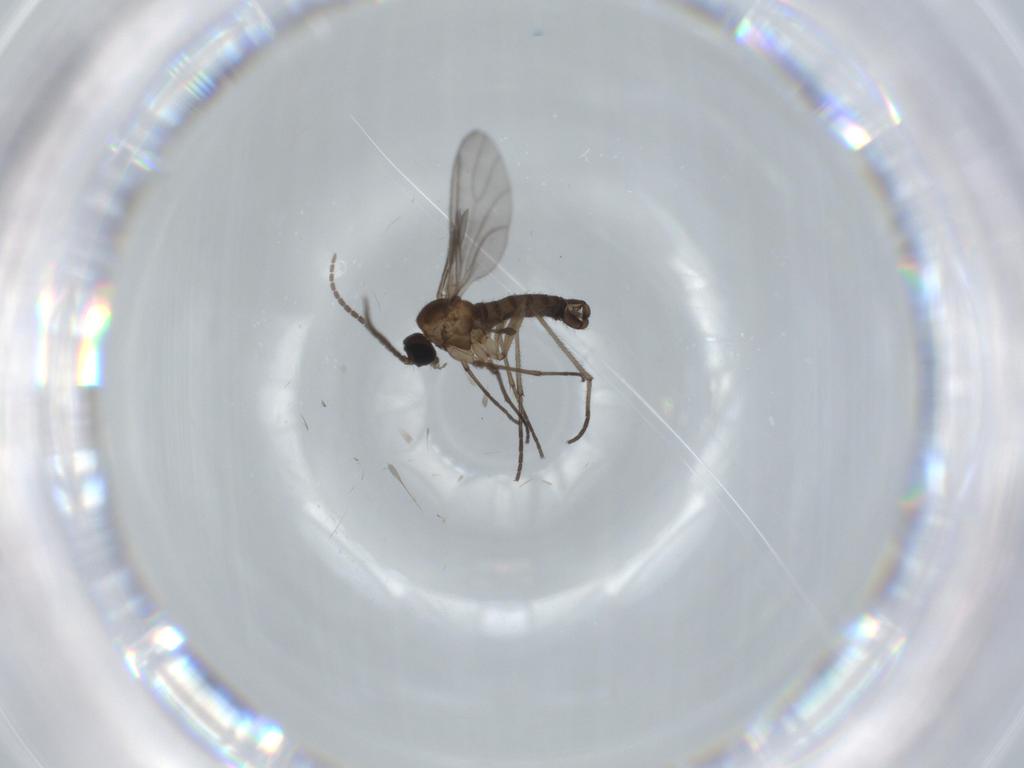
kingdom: Animalia
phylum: Arthropoda
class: Insecta
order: Diptera
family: Sciaridae
